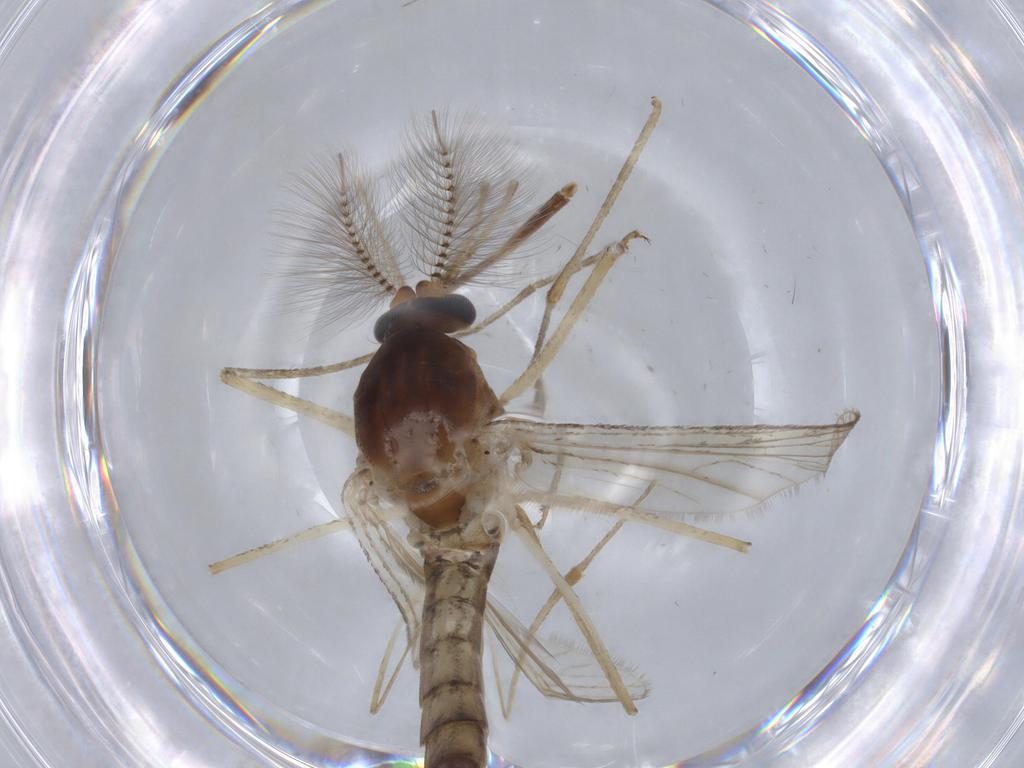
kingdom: Animalia
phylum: Arthropoda
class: Insecta
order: Diptera
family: Culicidae
